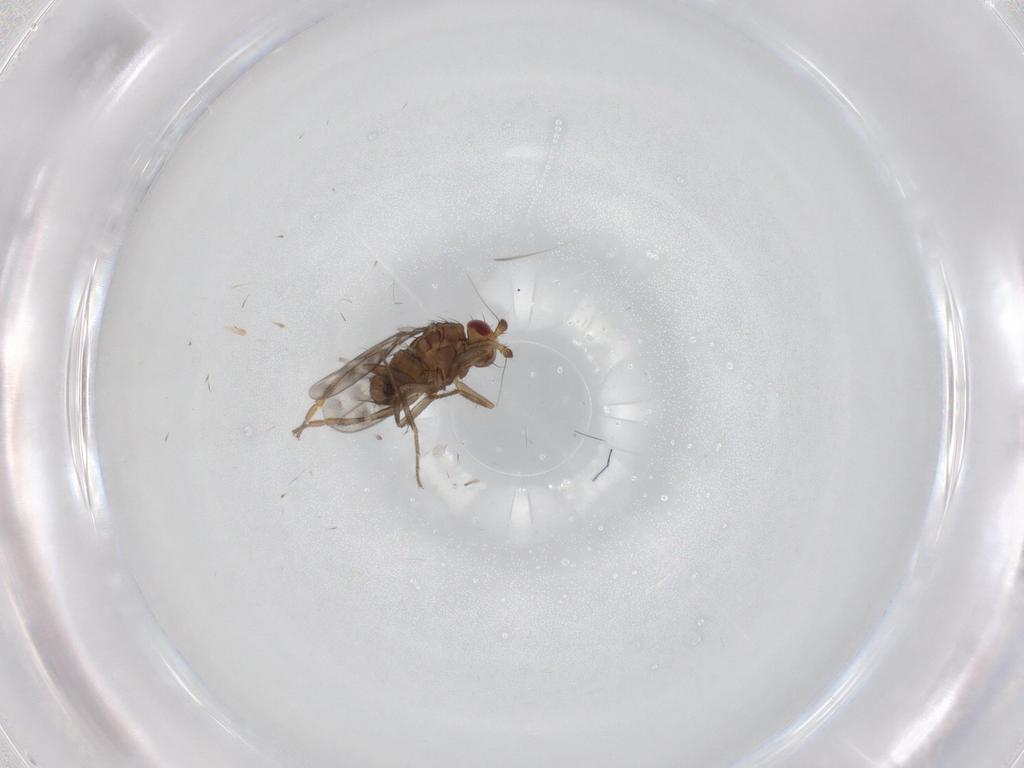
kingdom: Animalia
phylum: Arthropoda
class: Insecta
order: Diptera
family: Sphaeroceridae
